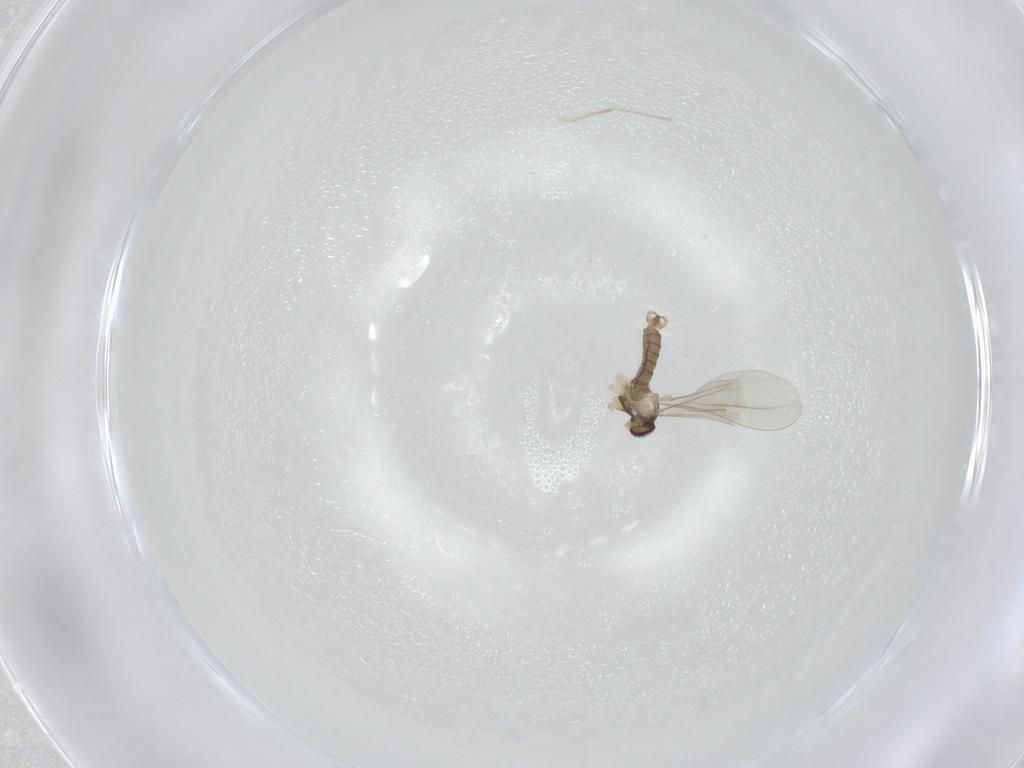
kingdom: Animalia
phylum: Arthropoda
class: Insecta
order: Diptera
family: Cecidomyiidae
